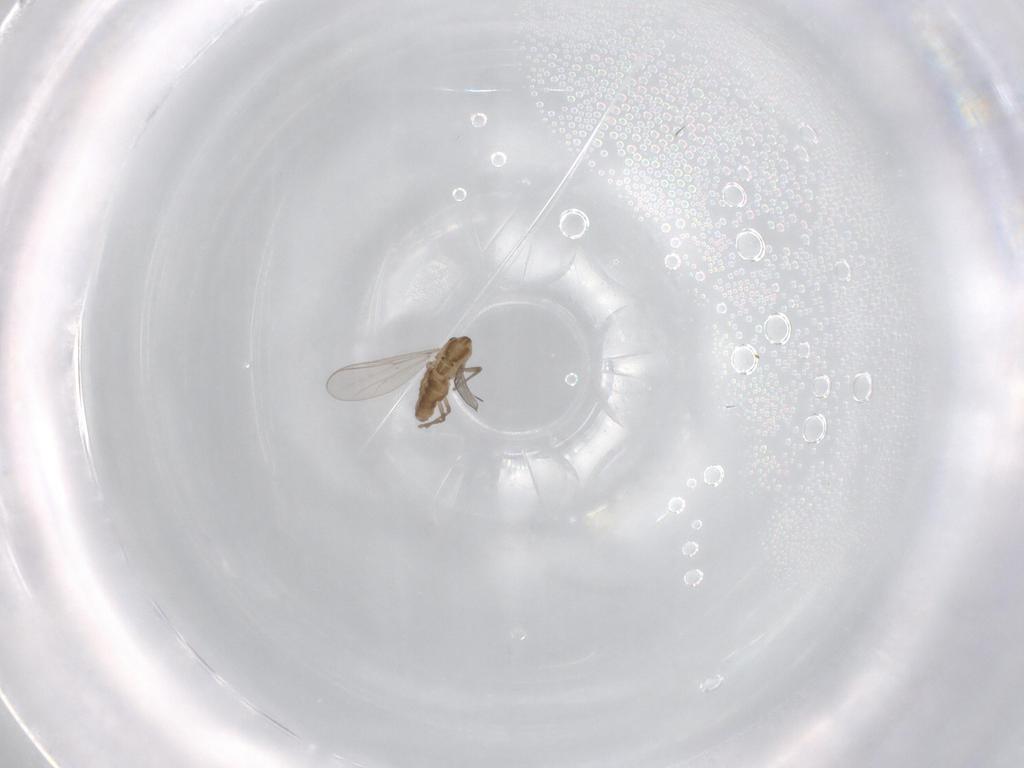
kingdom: Animalia
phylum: Arthropoda
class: Insecta
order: Diptera
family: Chironomidae
